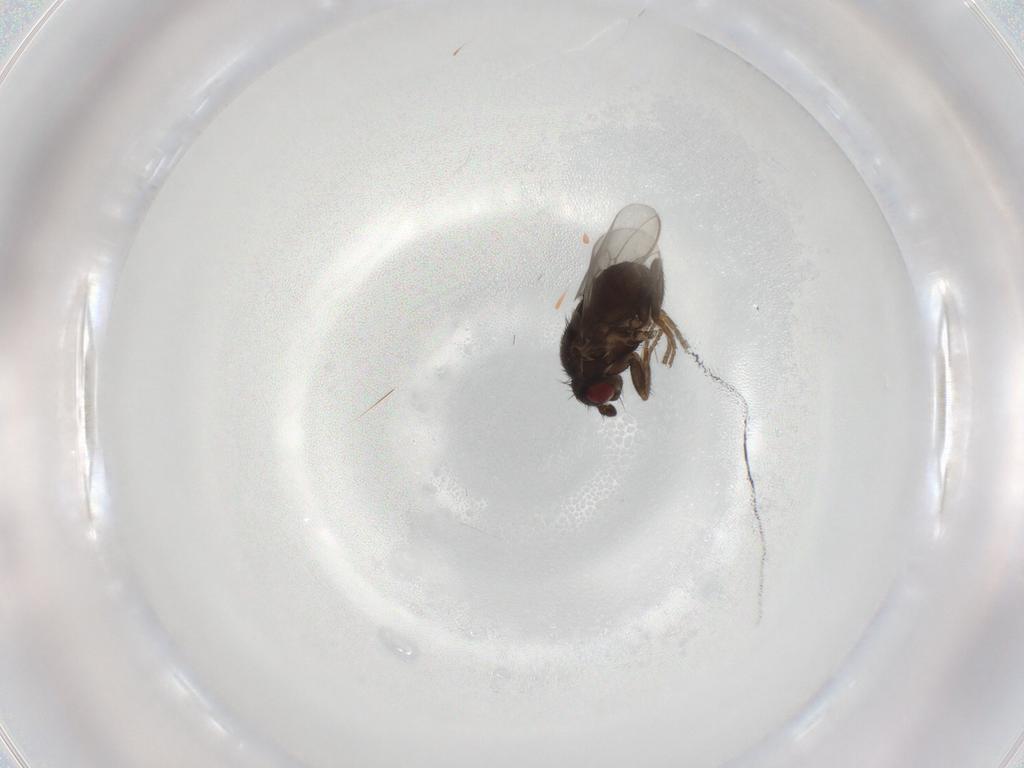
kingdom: Animalia
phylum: Arthropoda
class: Insecta
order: Diptera
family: Sphaeroceridae
